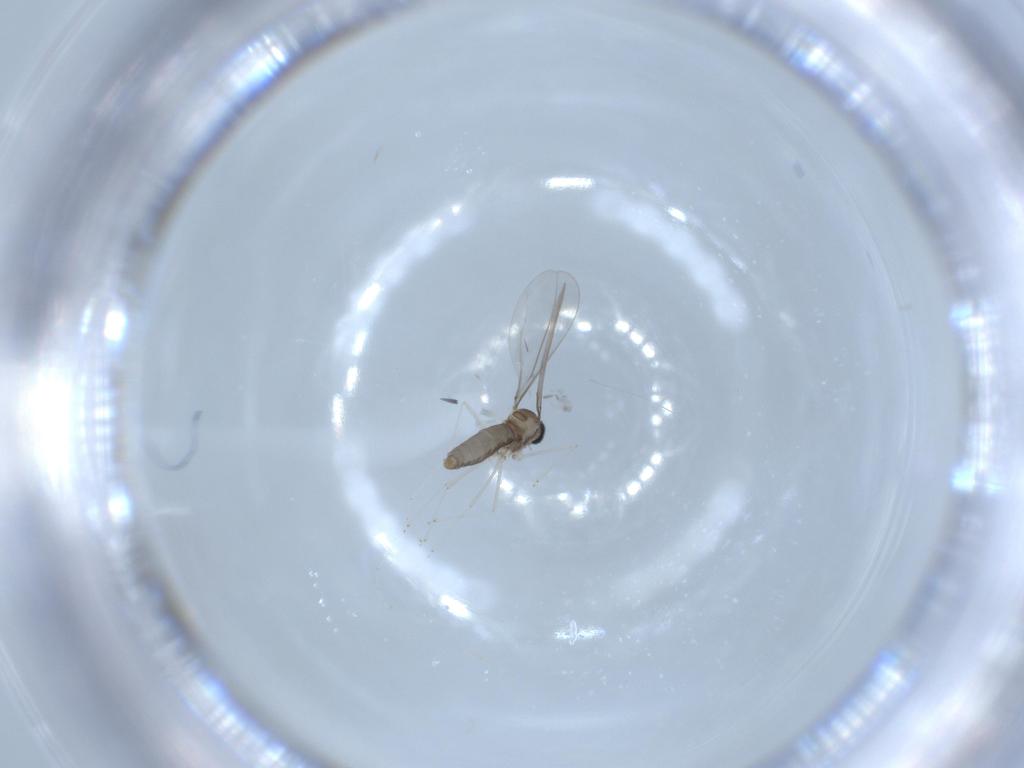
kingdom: Animalia
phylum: Arthropoda
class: Insecta
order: Diptera
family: Cecidomyiidae
